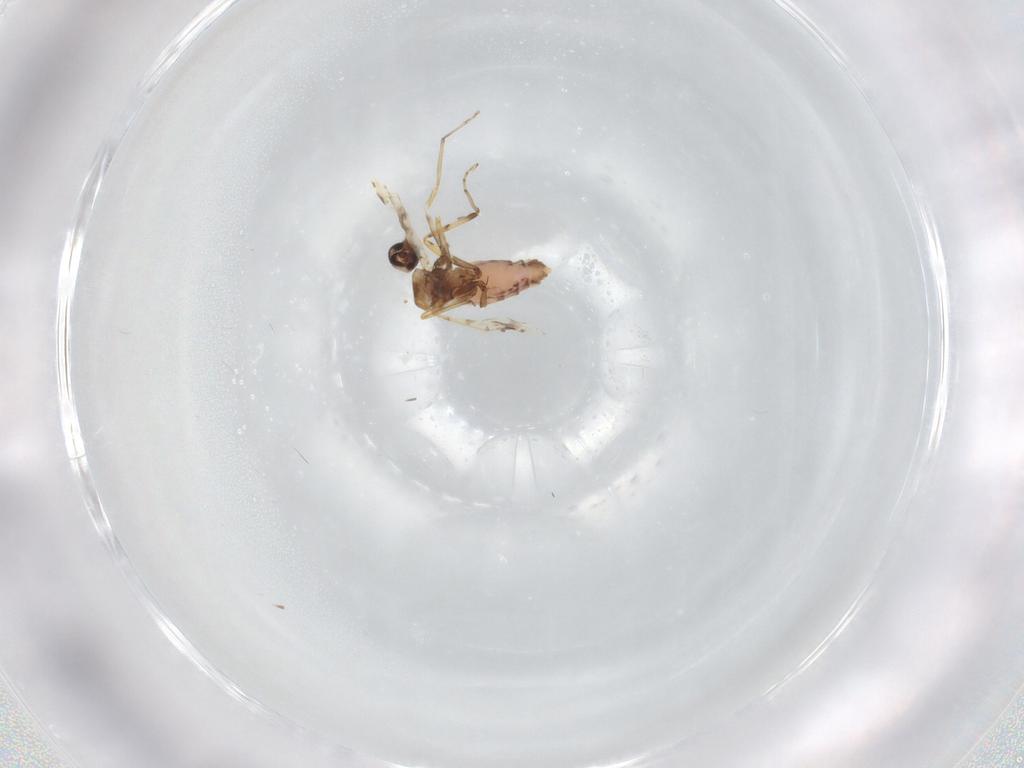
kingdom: Animalia
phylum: Arthropoda
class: Insecta
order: Diptera
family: Ceratopogonidae
